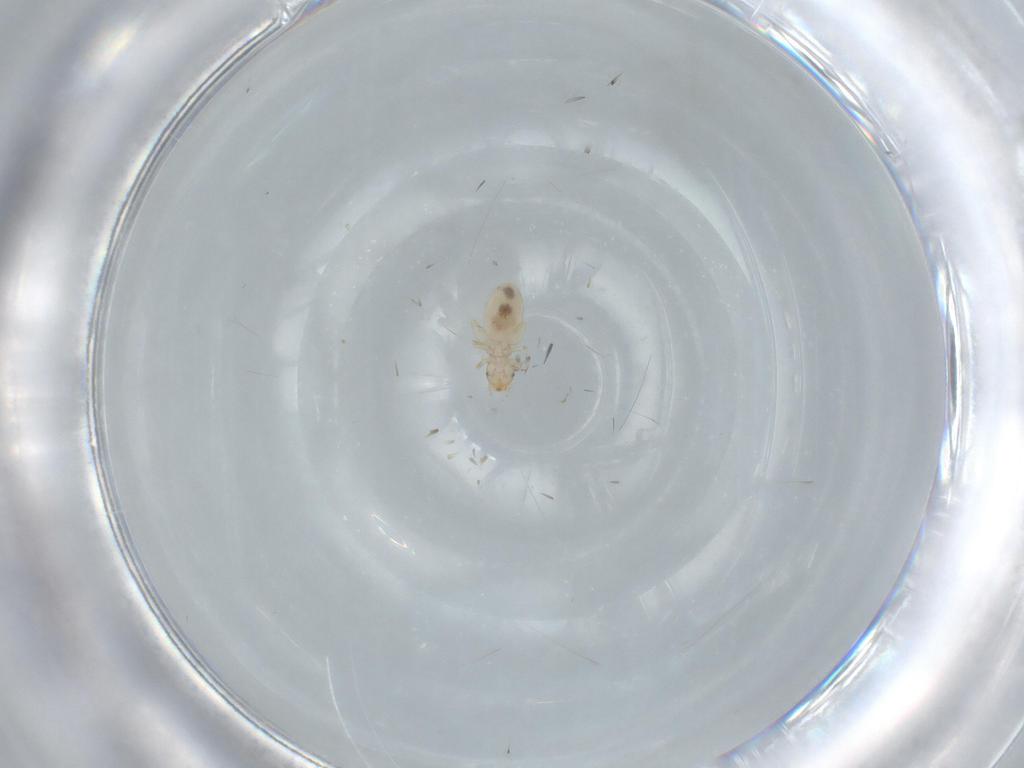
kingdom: Animalia
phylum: Arthropoda
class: Insecta
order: Psocodea
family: Liposcelididae
